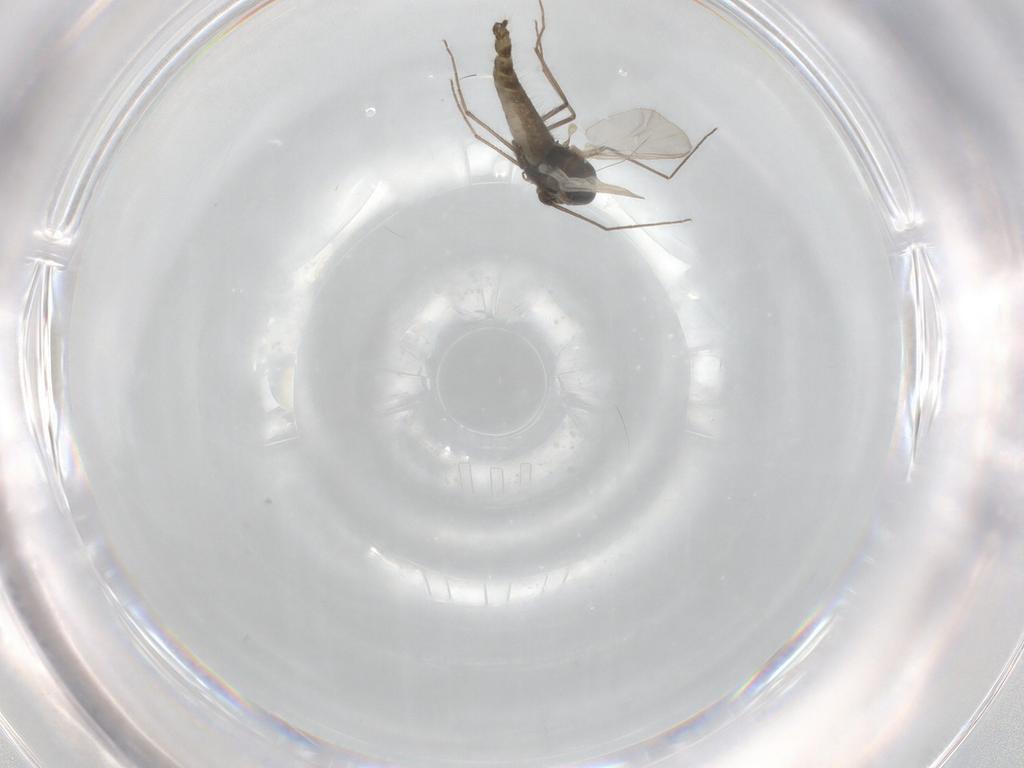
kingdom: Animalia
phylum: Arthropoda
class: Insecta
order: Diptera
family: Chironomidae
